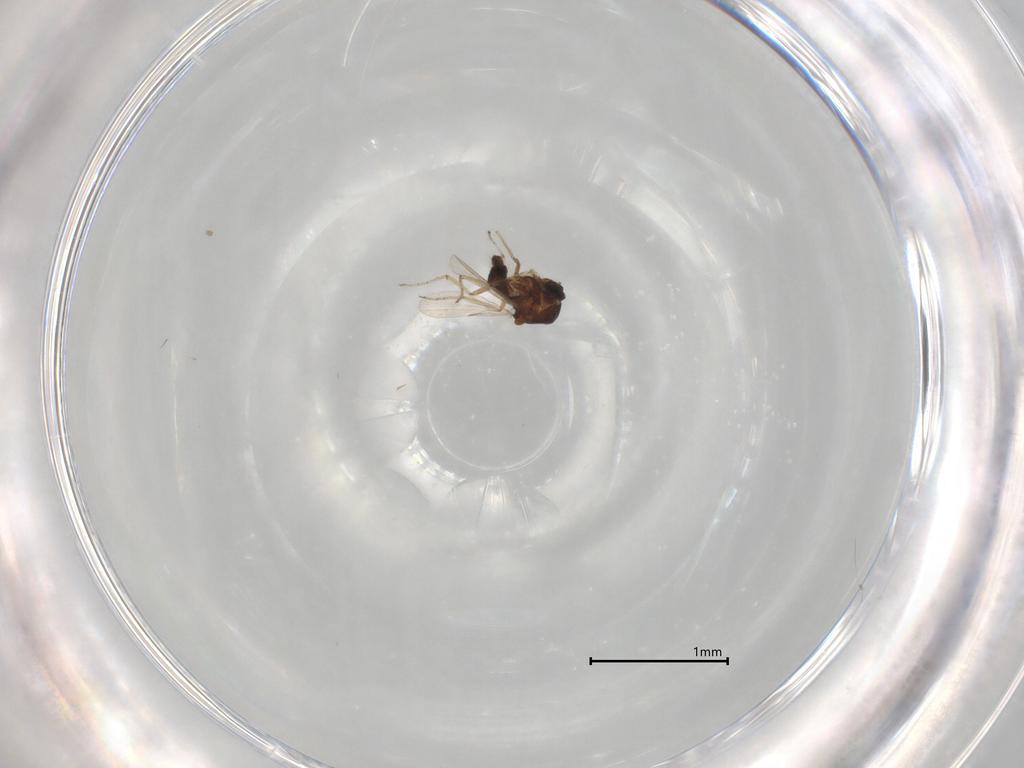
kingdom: Animalia
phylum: Arthropoda
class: Insecta
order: Diptera
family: Ceratopogonidae
